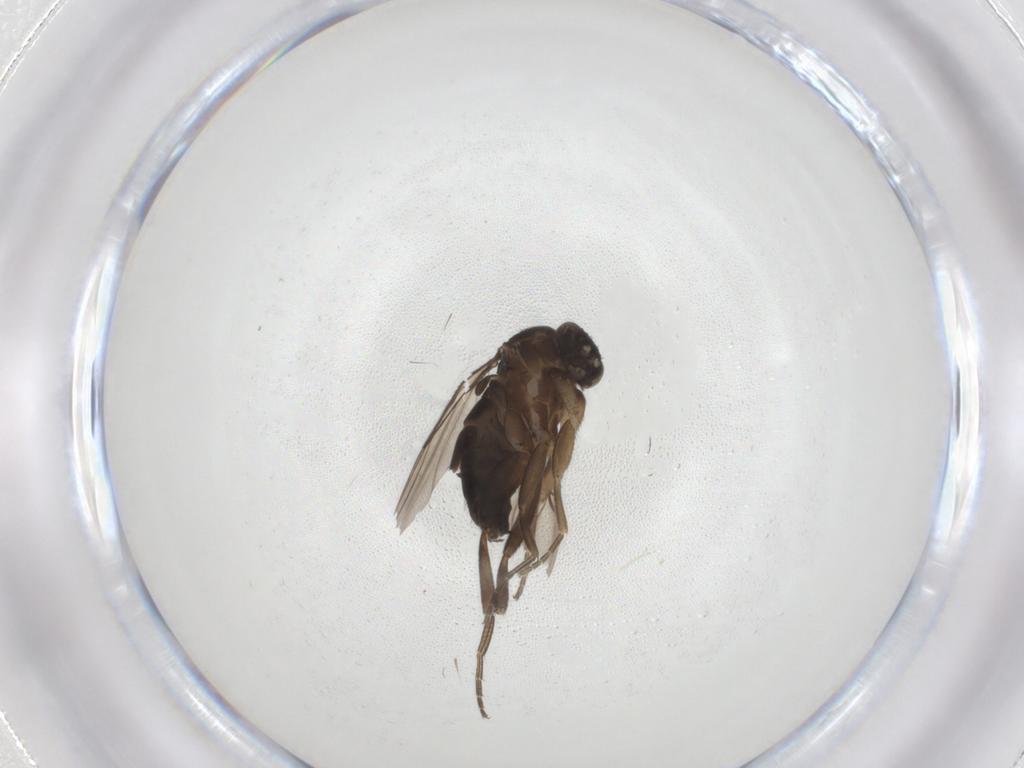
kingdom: Animalia
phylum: Arthropoda
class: Insecta
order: Diptera
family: Phoridae
